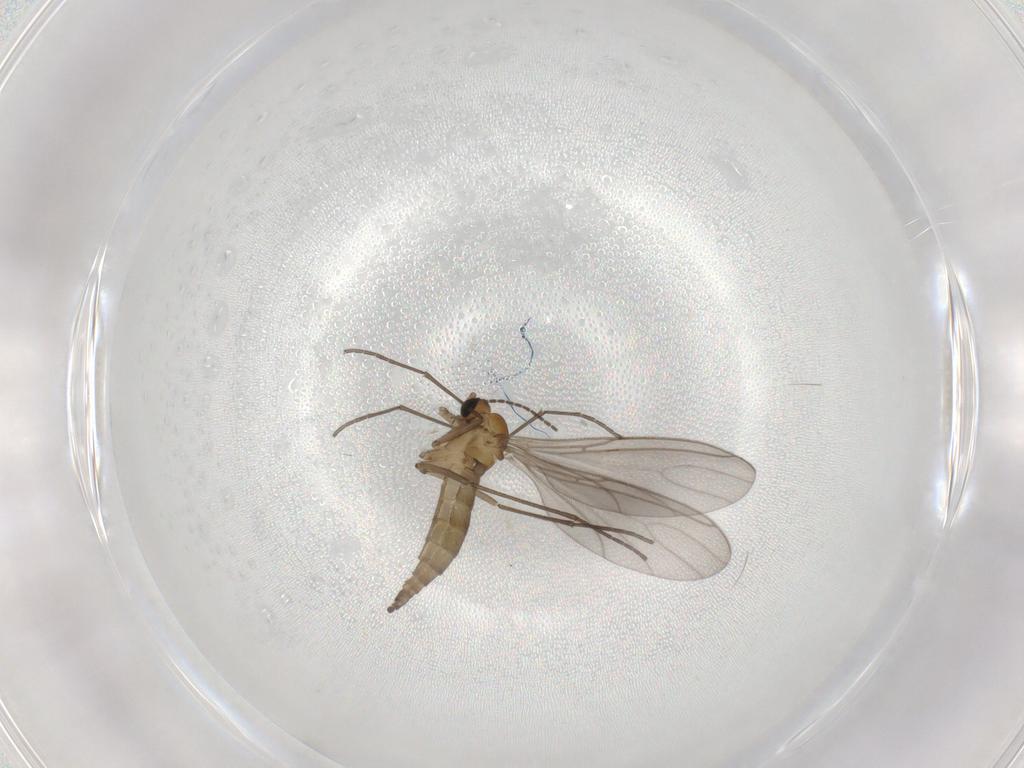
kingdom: Animalia
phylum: Arthropoda
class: Insecta
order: Diptera
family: Sciaridae
